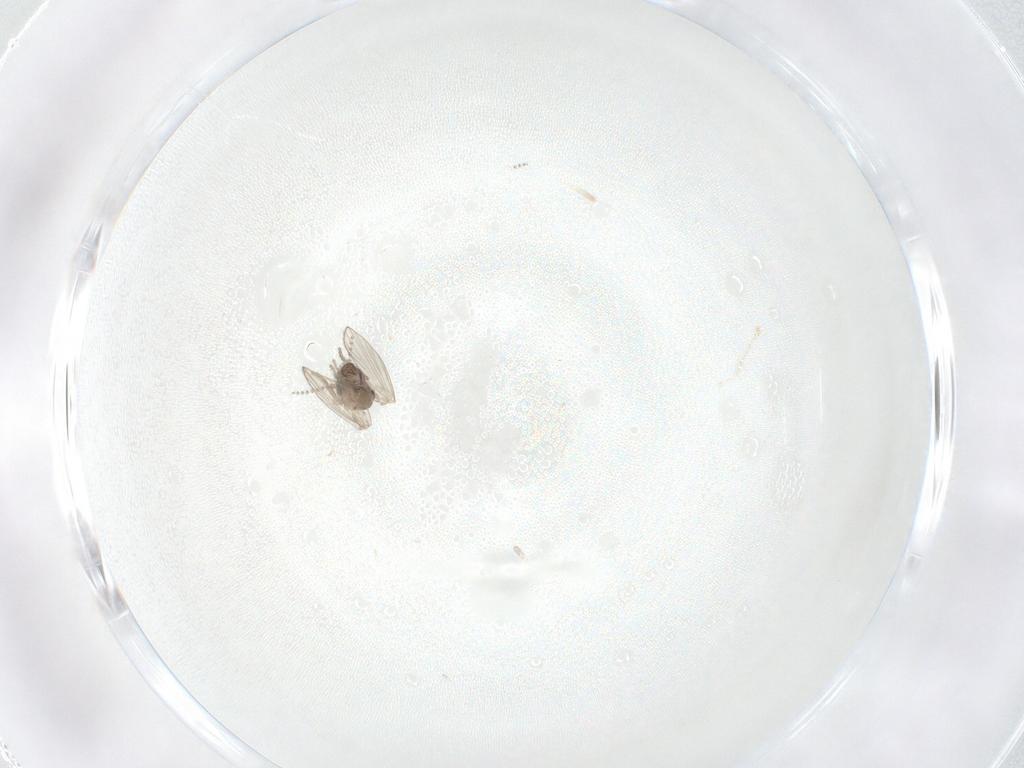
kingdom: Animalia
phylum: Arthropoda
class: Insecta
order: Diptera
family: Psychodidae
